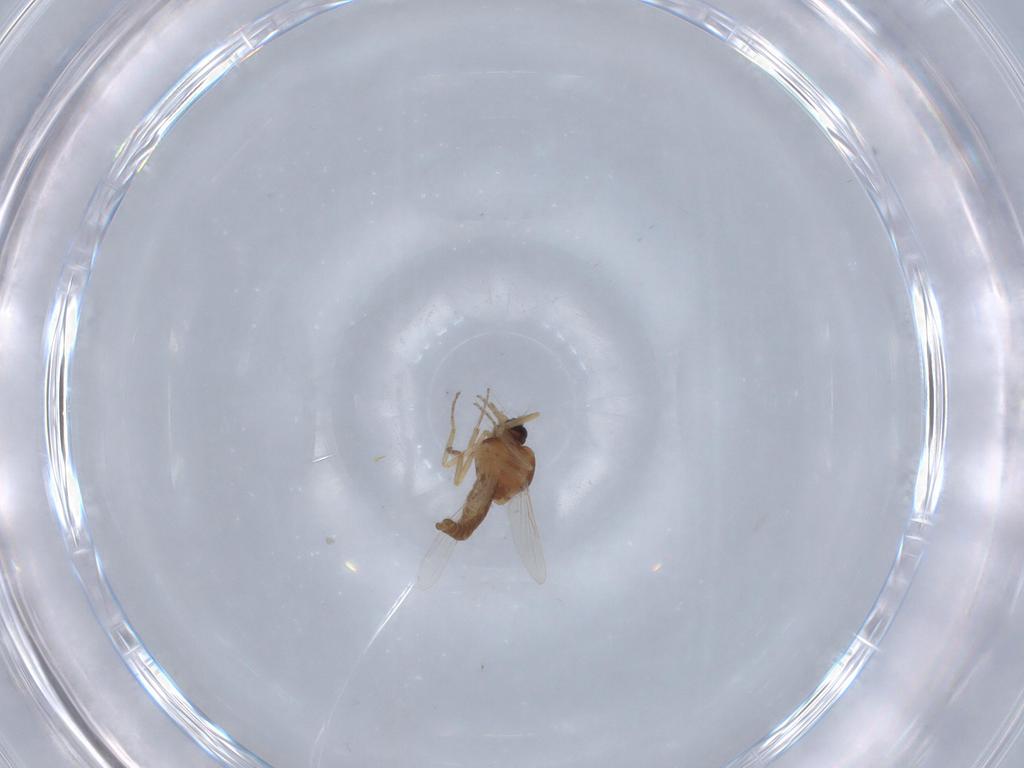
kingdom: Animalia
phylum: Arthropoda
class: Insecta
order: Diptera
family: Ceratopogonidae
